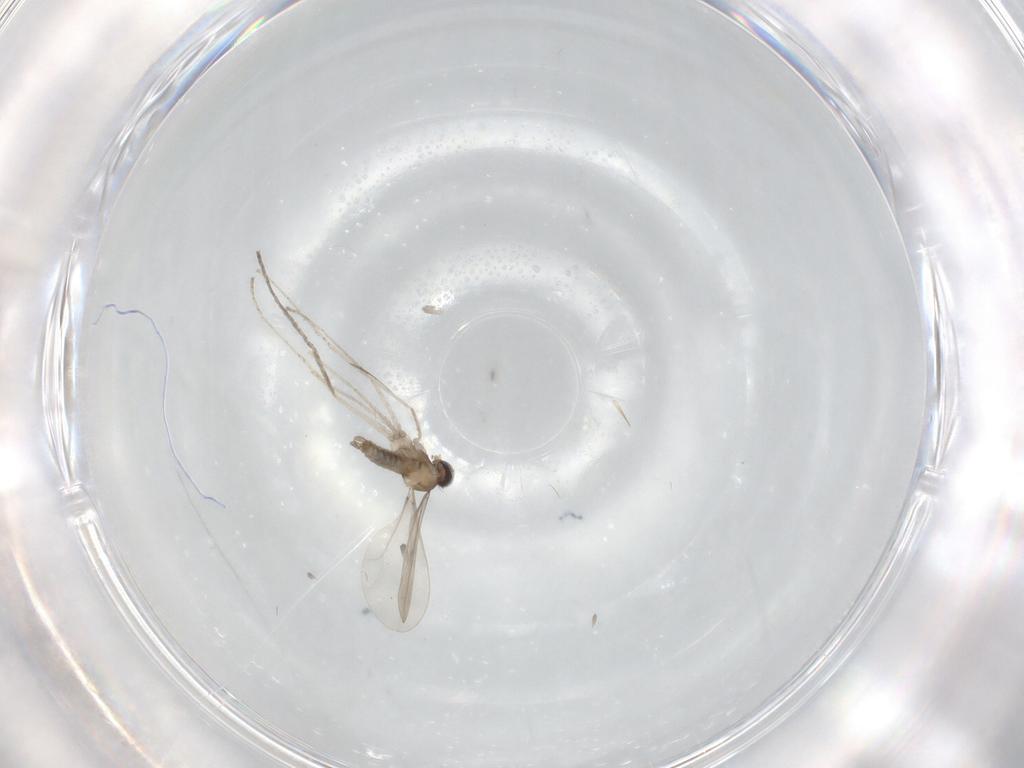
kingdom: Animalia
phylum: Arthropoda
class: Insecta
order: Diptera
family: Cecidomyiidae
